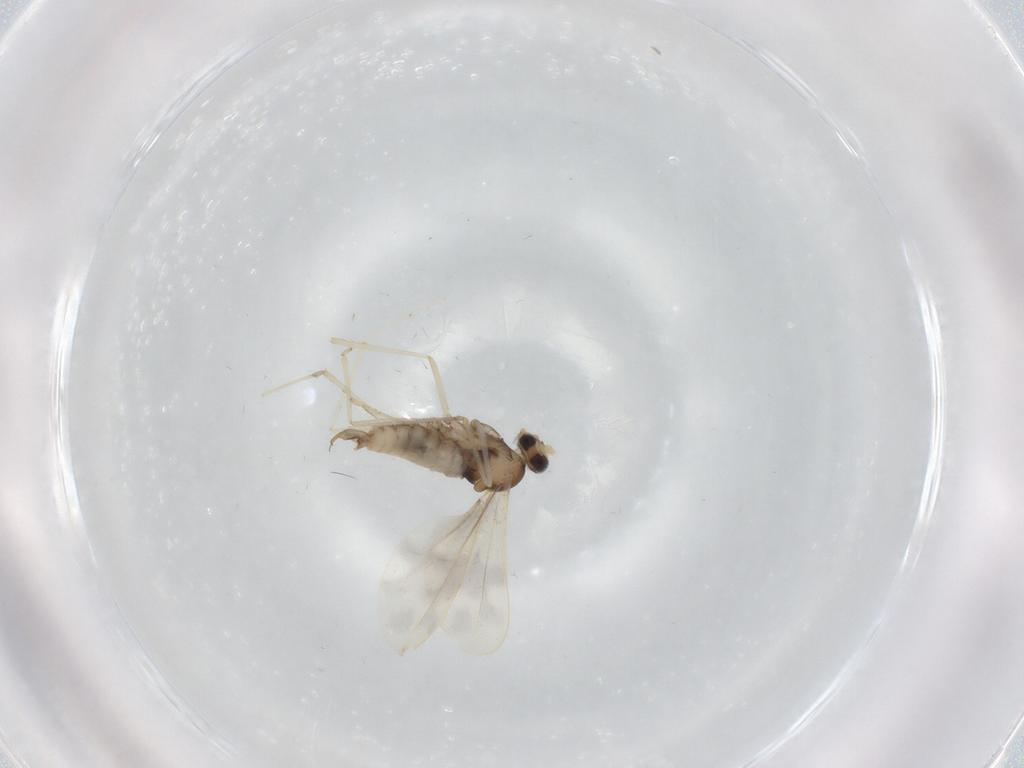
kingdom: Animalia
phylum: Arthropoda
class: Insecta
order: Diptera
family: Cecidomyiidae
